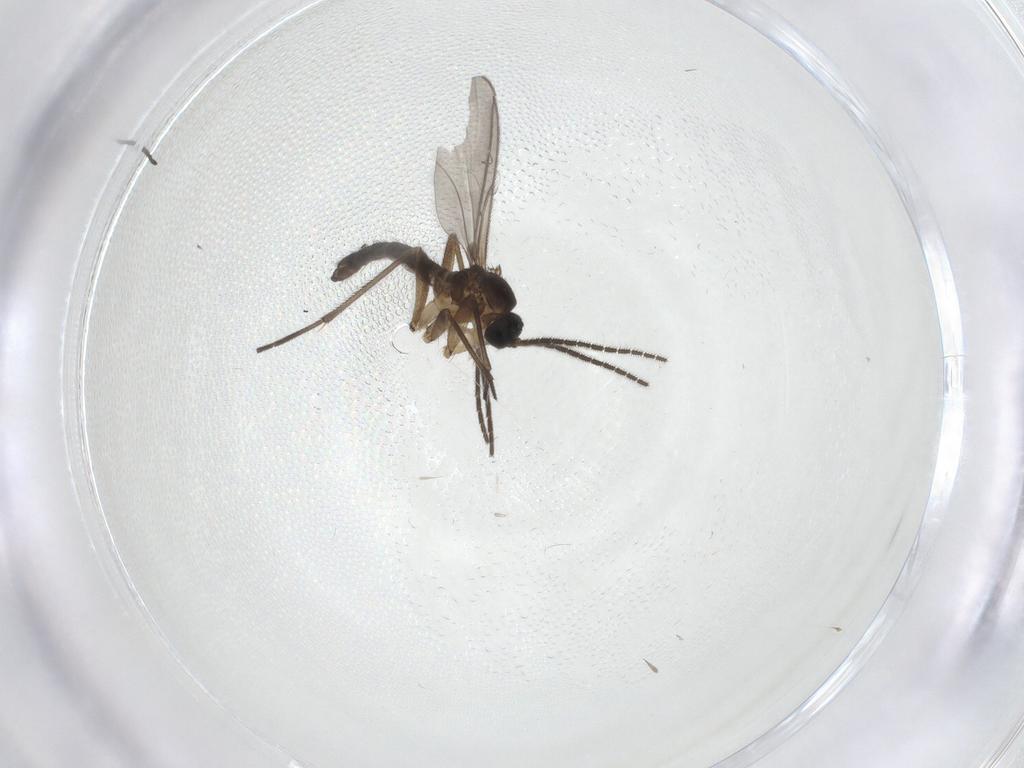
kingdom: Animalia
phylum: Arthropoda
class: Insecta
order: Diptera
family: Sciaridae
